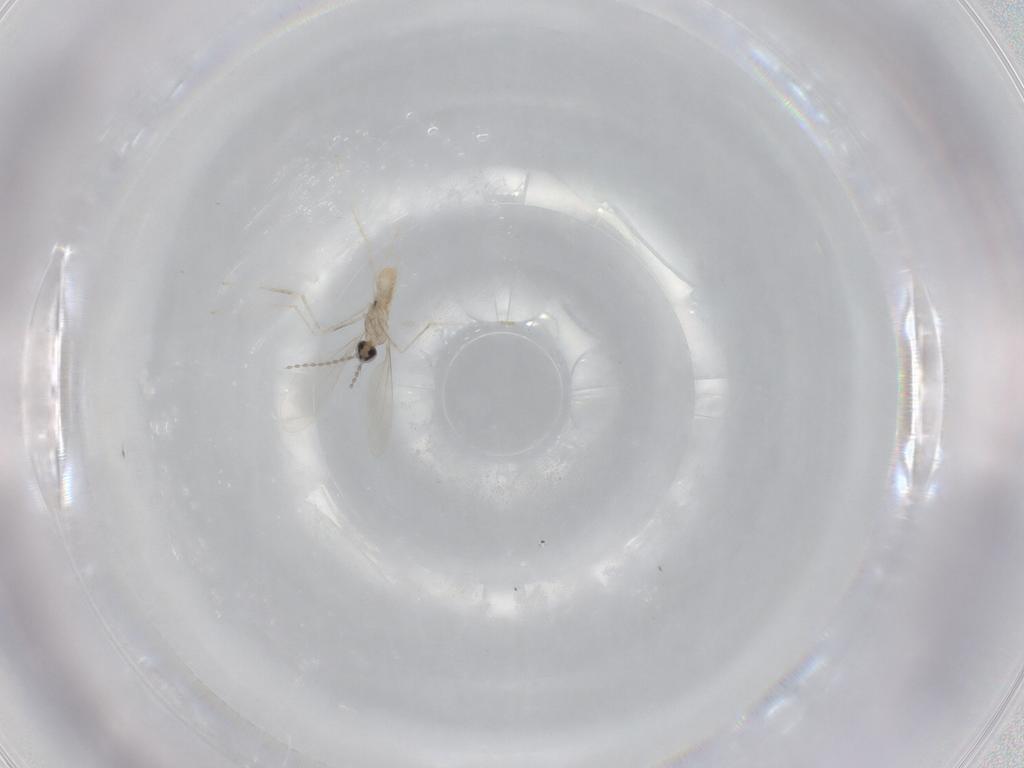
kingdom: Animalia
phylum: Arthropoda
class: Insecta
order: Diptera
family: Cecidomyiidae
